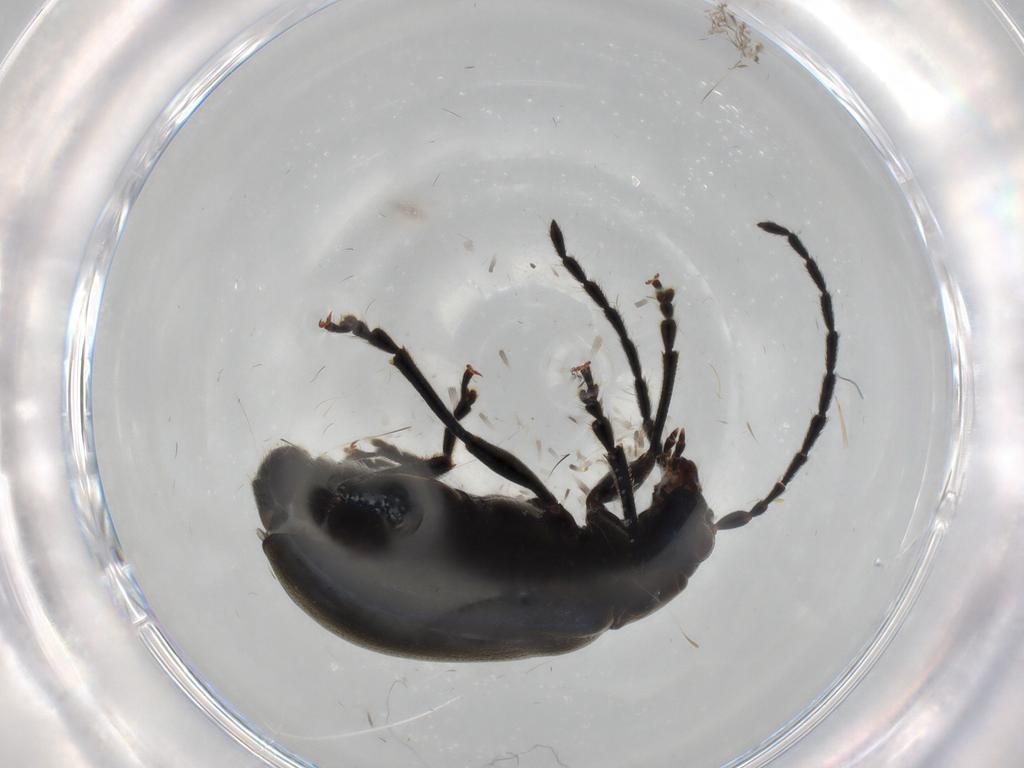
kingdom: Animalia
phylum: Arthropoda
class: Insecta
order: Coleoptera
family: Chrysomelidae
